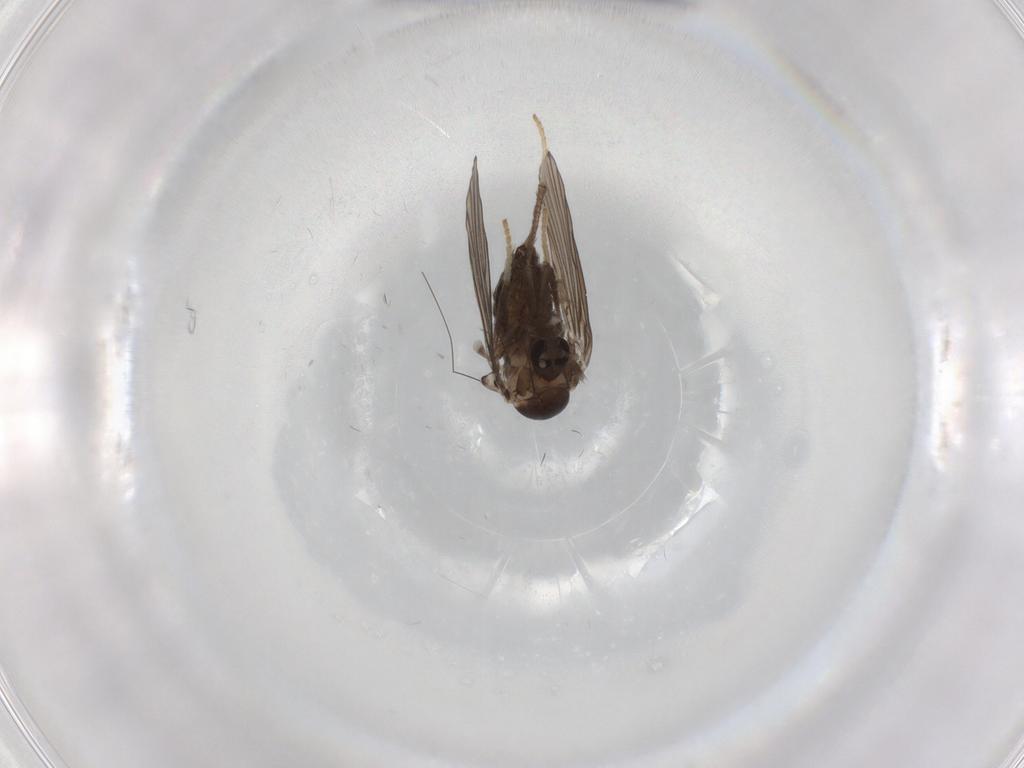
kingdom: Animalia
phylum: Arthropoda
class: Insecta
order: Diptera
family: Psychodidae
